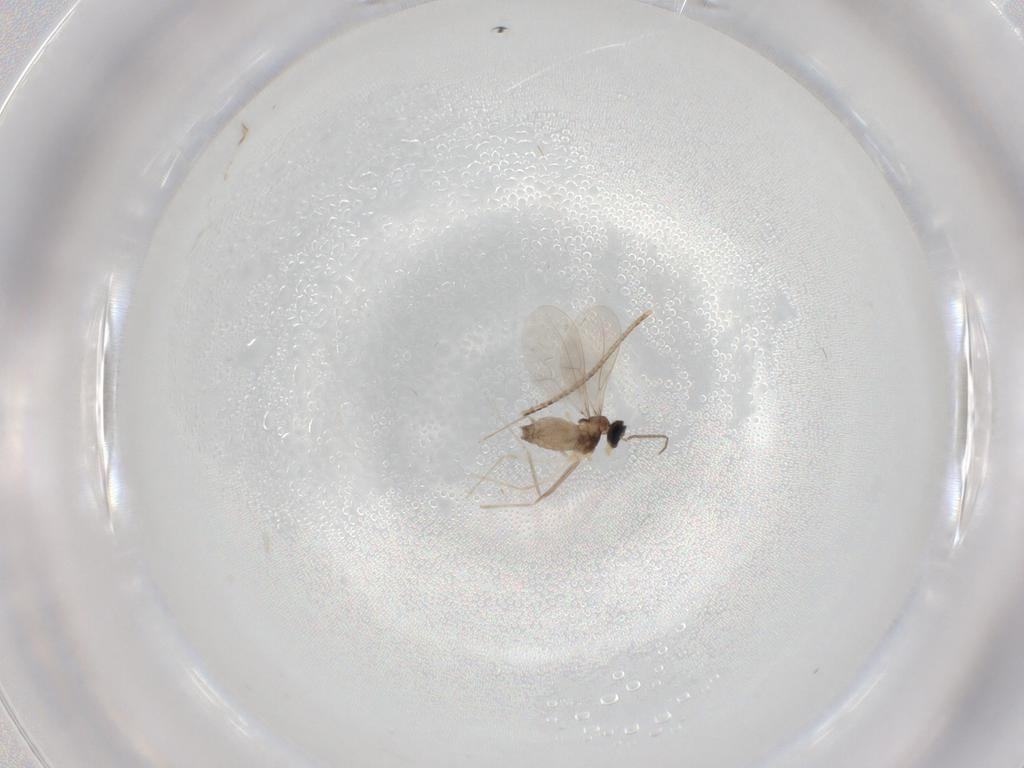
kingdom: Animalia
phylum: Arthropoda
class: Insecta
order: Diptera
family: Cecidomyiidae
